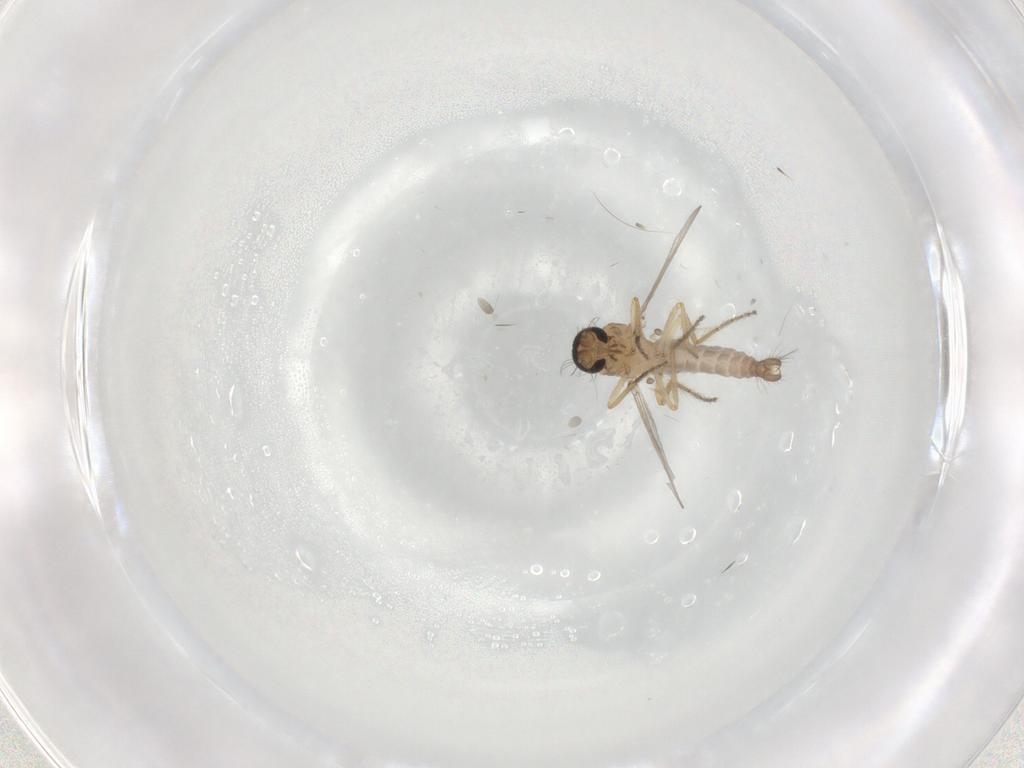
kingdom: Animalia
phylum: Arthropoda
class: Insecta
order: Diptera
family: Ceratopogonidae
